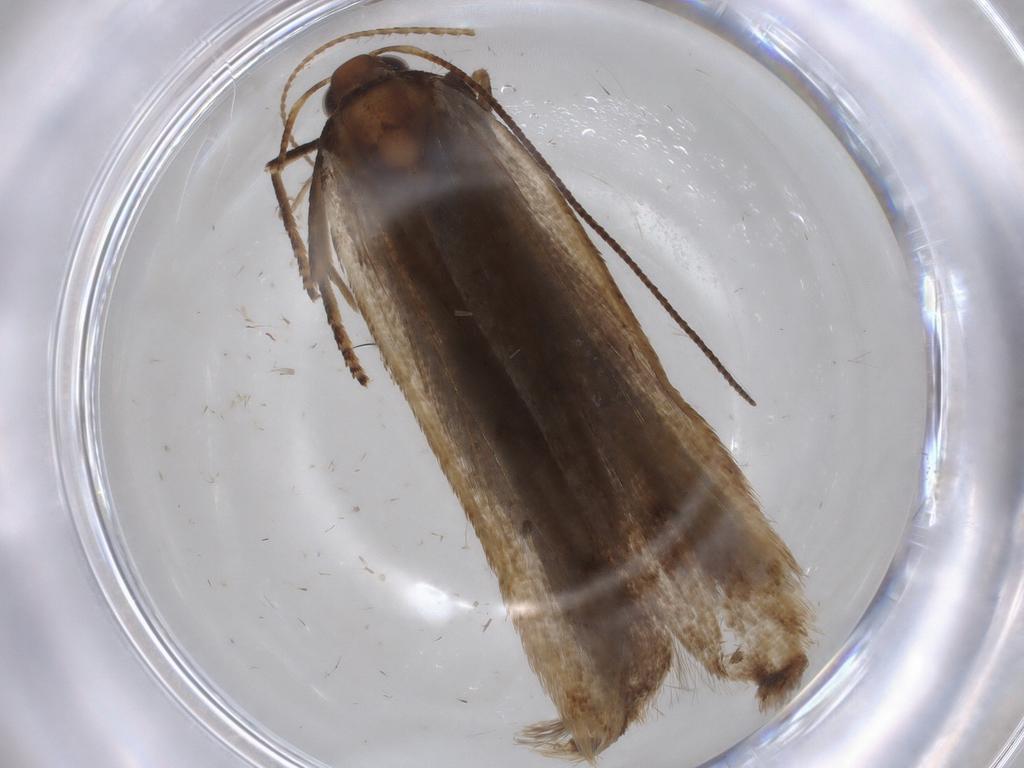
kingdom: Animalia
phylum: Arthropoda
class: Insecta
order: Lepidoptera
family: Gelechiidae
